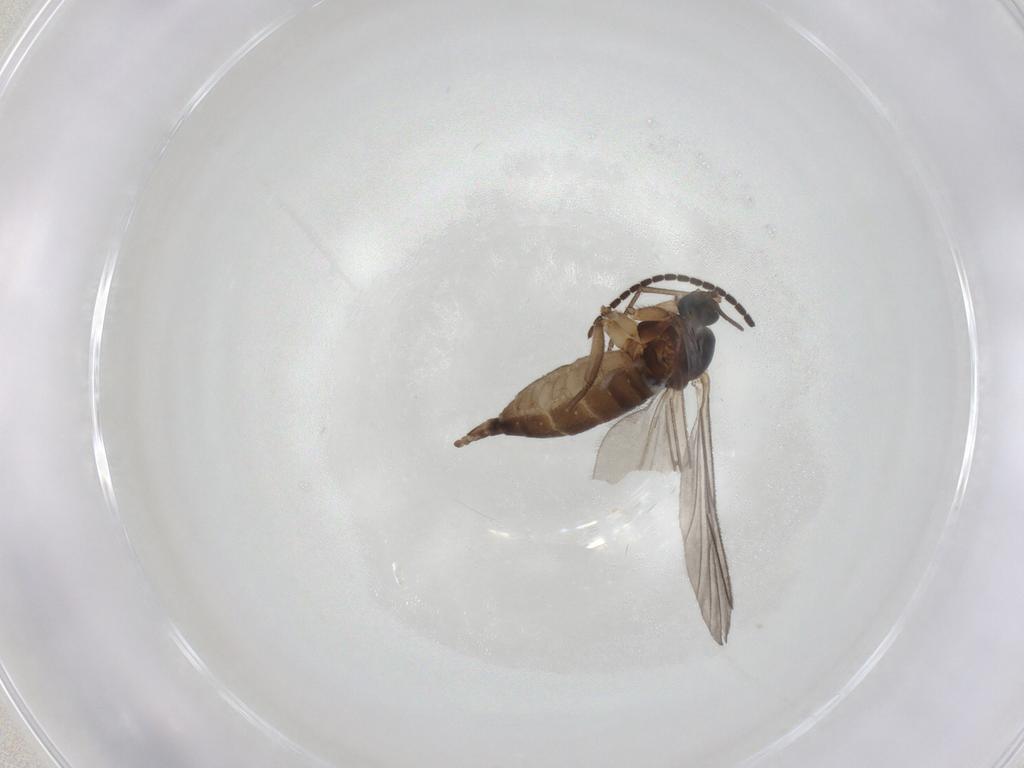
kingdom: Animalia
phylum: Arthropoda
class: Insecta
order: Diptera
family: Sciaridae
